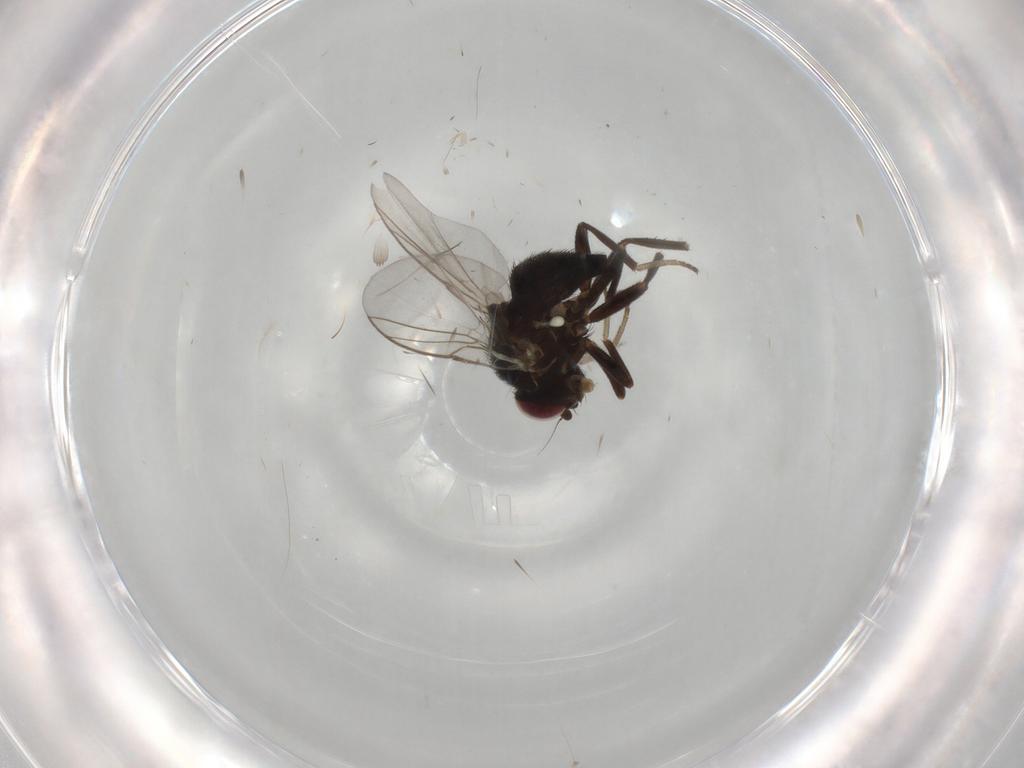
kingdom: Animalia
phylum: Arthropoda
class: Insecta
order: Diptera
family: Agromyzidae
